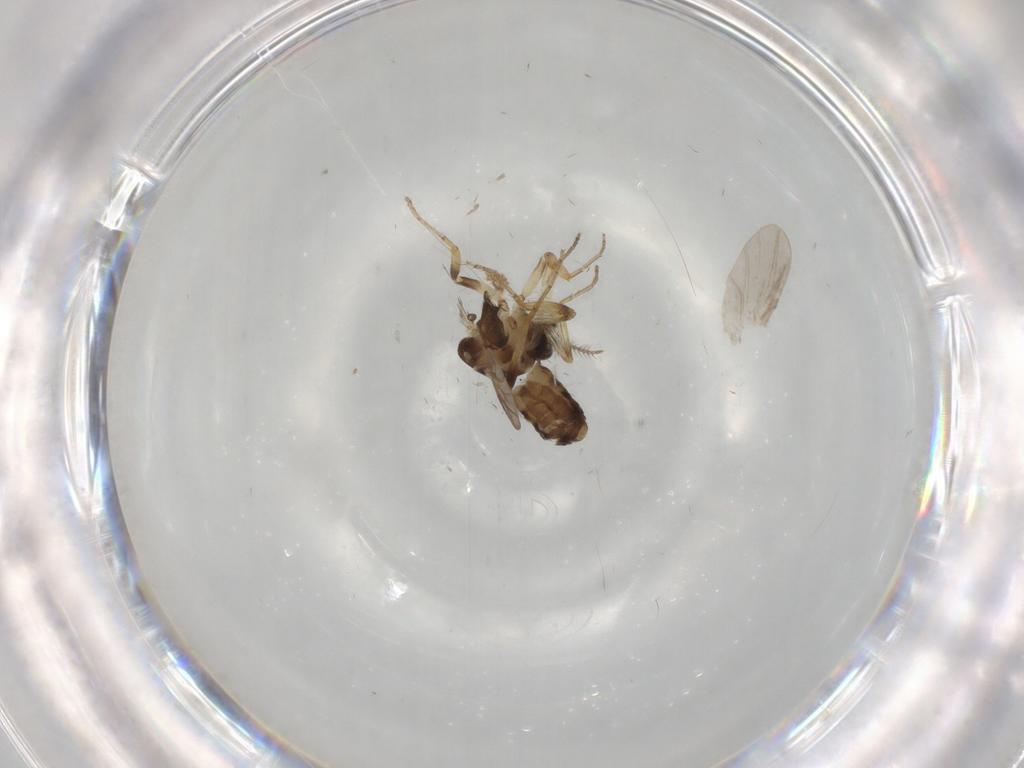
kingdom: Animalia
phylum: Arthropoda
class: Insecta
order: Diptera
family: Ceratopogonidae
